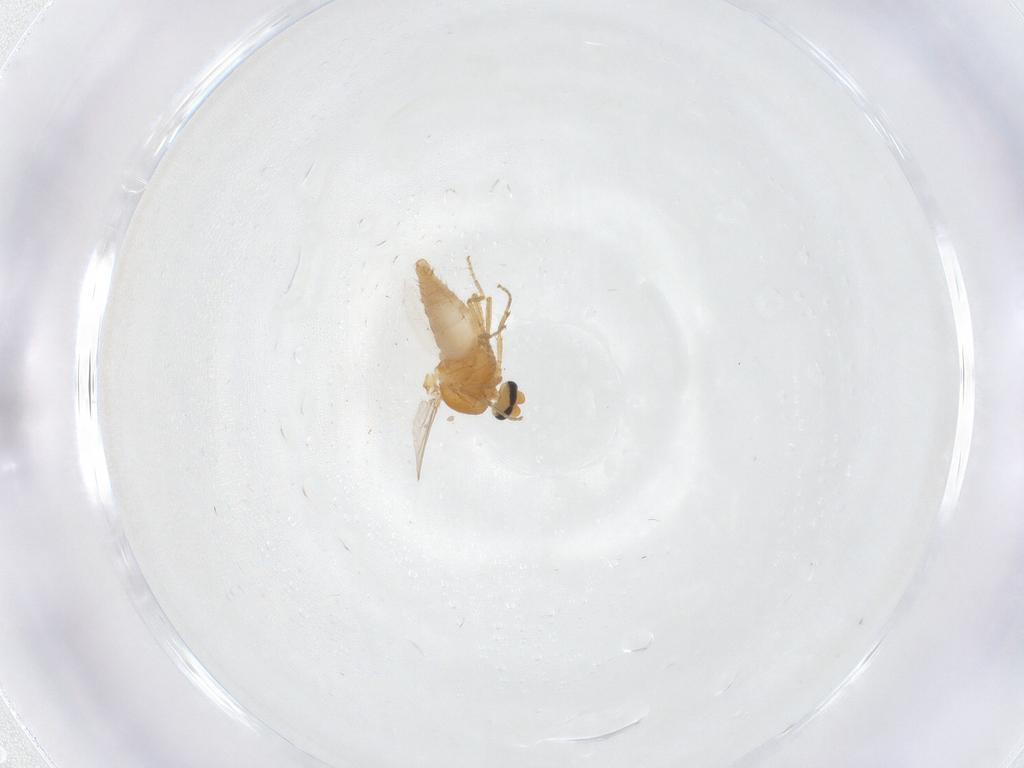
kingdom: Animalia
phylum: Arthropoda
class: Insecta
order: Diptera
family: Ceratopogonidae
